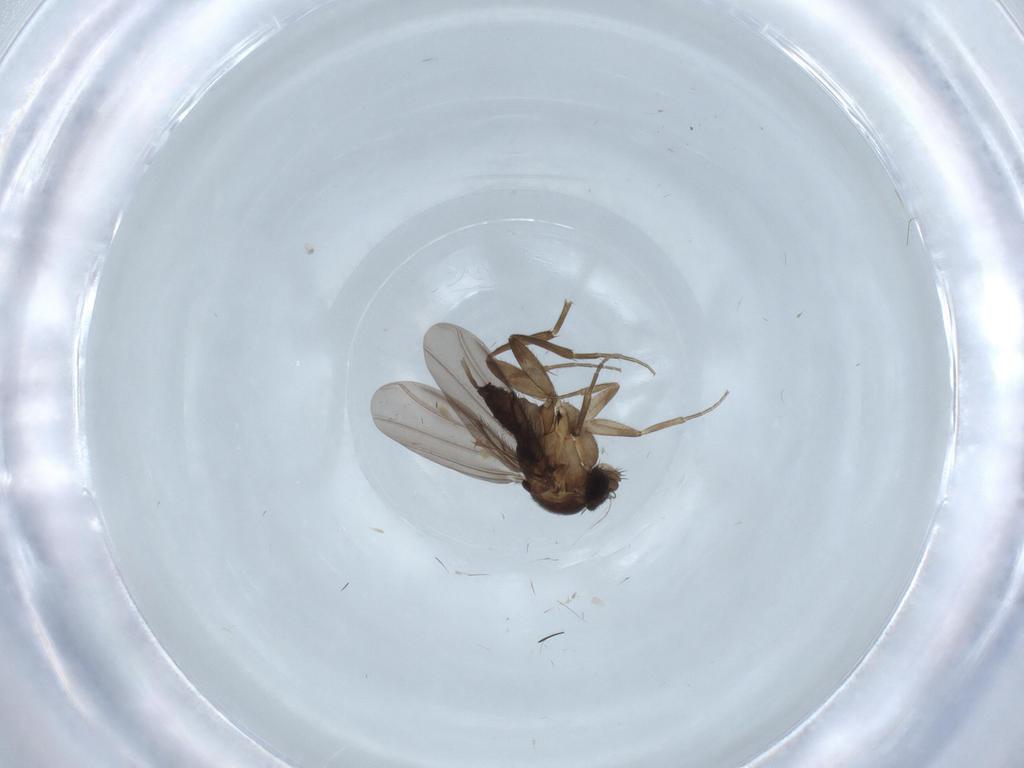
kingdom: Animalia
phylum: Arthropoda
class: Insecta
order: Diptera
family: Phoridae
